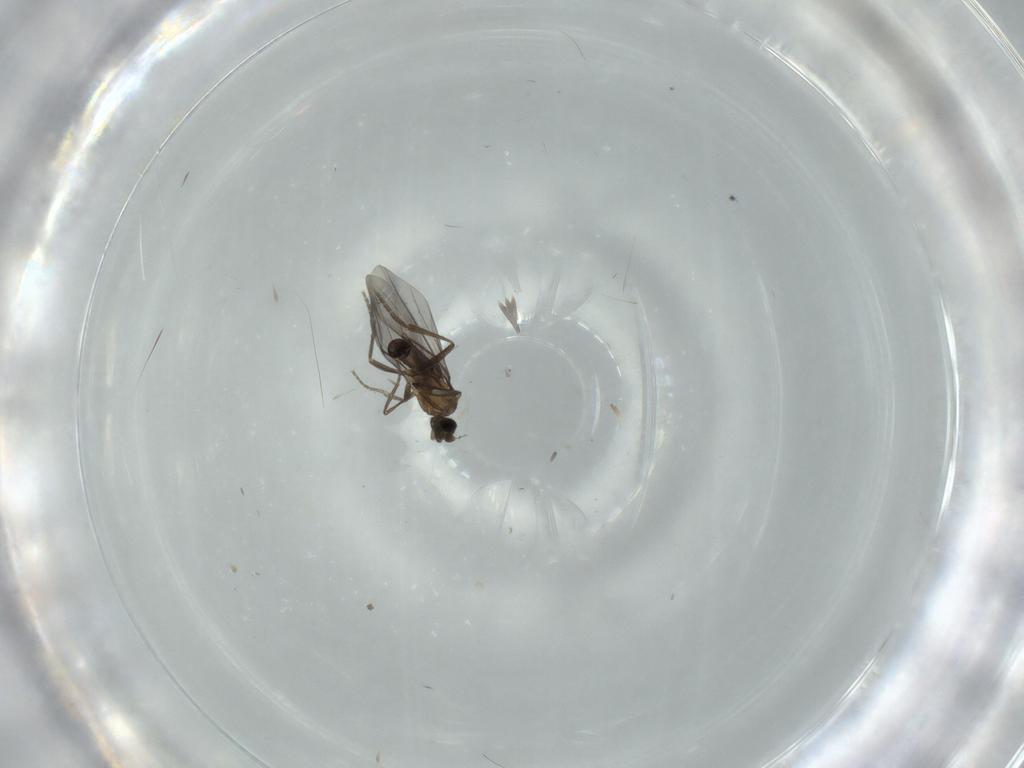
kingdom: Animalia
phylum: Arthropoda
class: Insecta
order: Diptera
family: Phoridae
